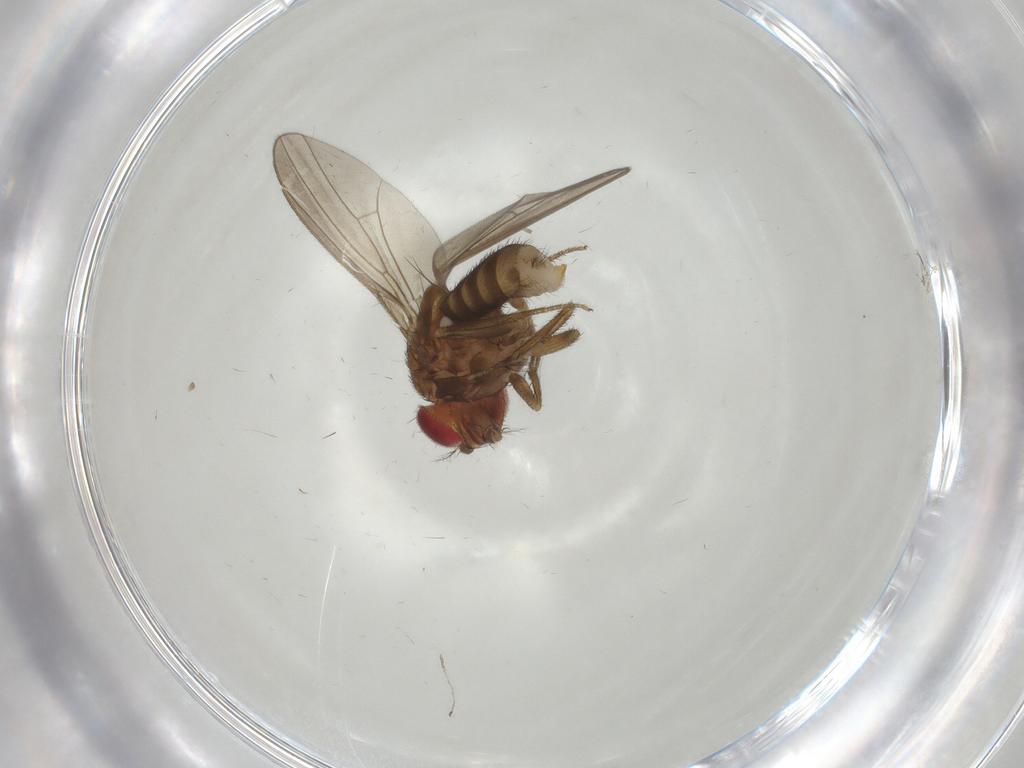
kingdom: Animalia
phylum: Arthropoda
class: Insecta
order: Diptera
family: Drosophilidae
